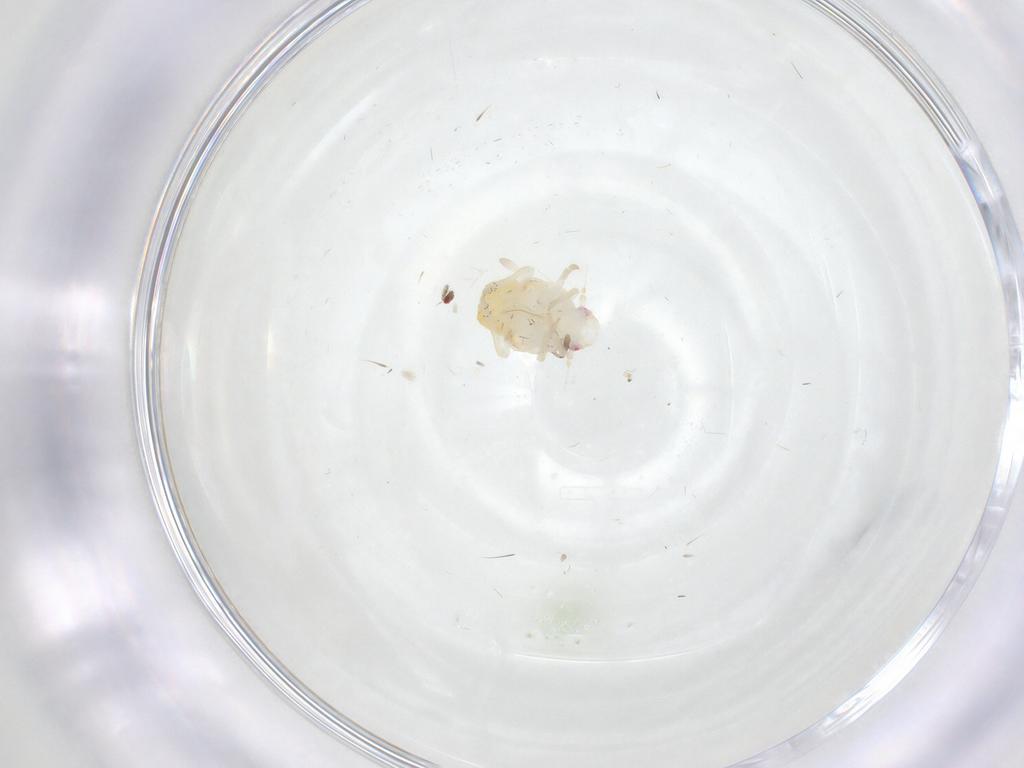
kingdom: Animalia
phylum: Arthropoda
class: Insecta
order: Hemiptera
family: Fulgoroidea_incertae_sedis
